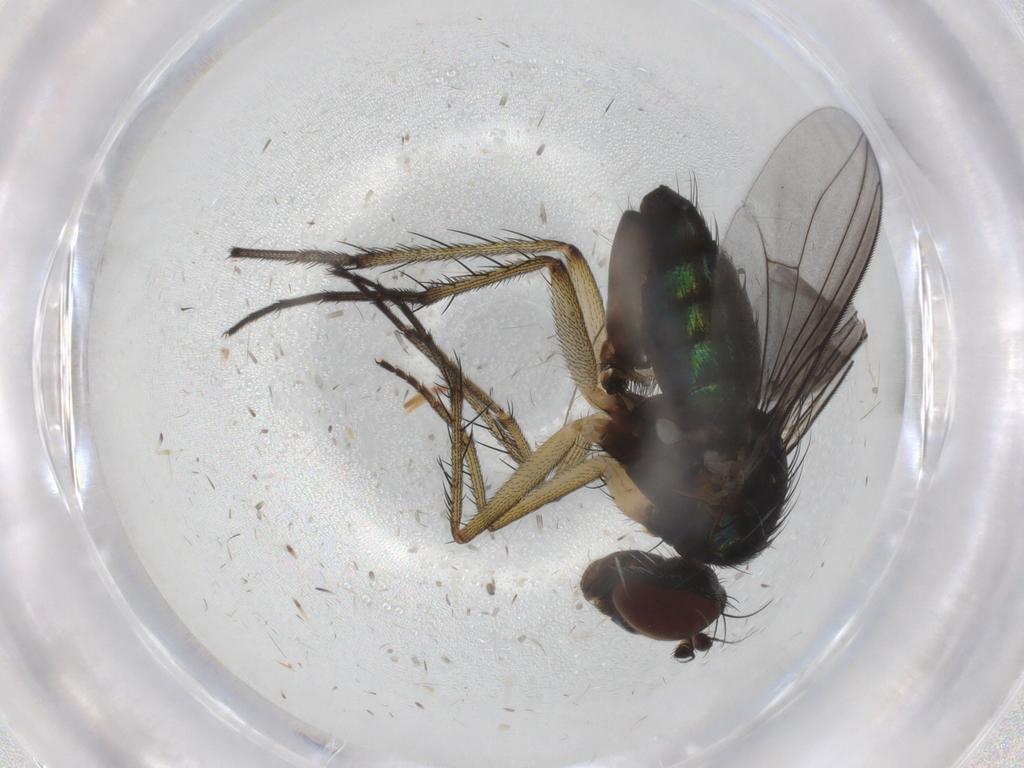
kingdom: Animalia
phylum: Arthropoda
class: Insecta
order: Diptera
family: Dolichopodidae
